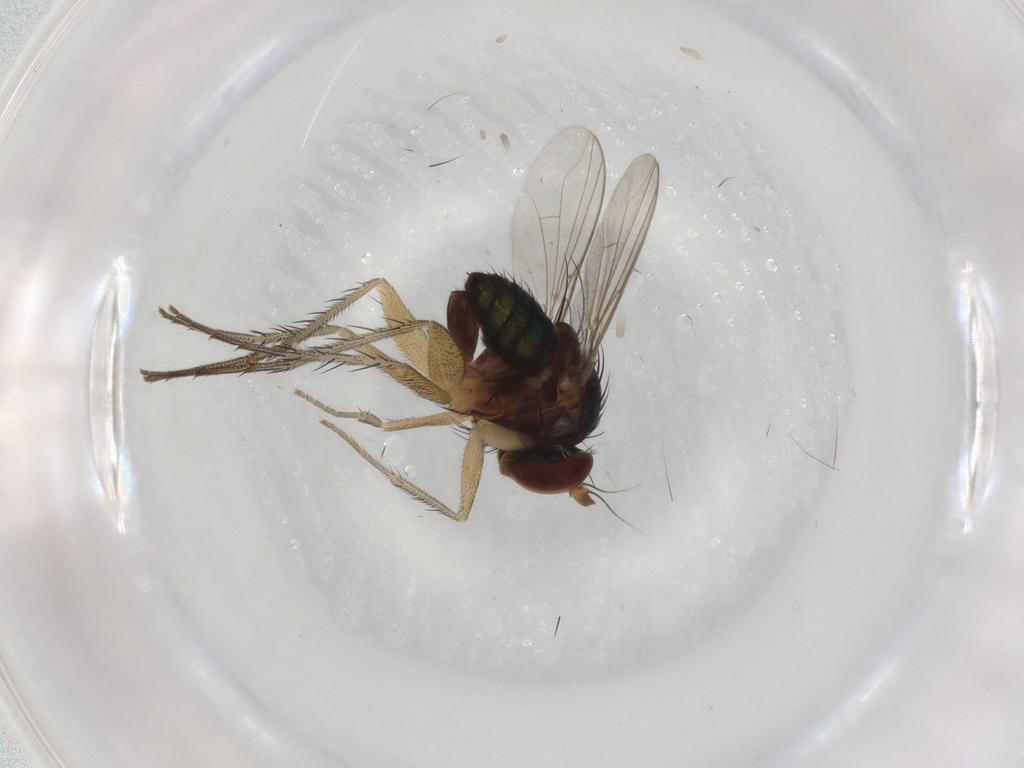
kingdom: Animalia
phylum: Arthropoda
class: Insecta
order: Diptera
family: Dolichopodidae
